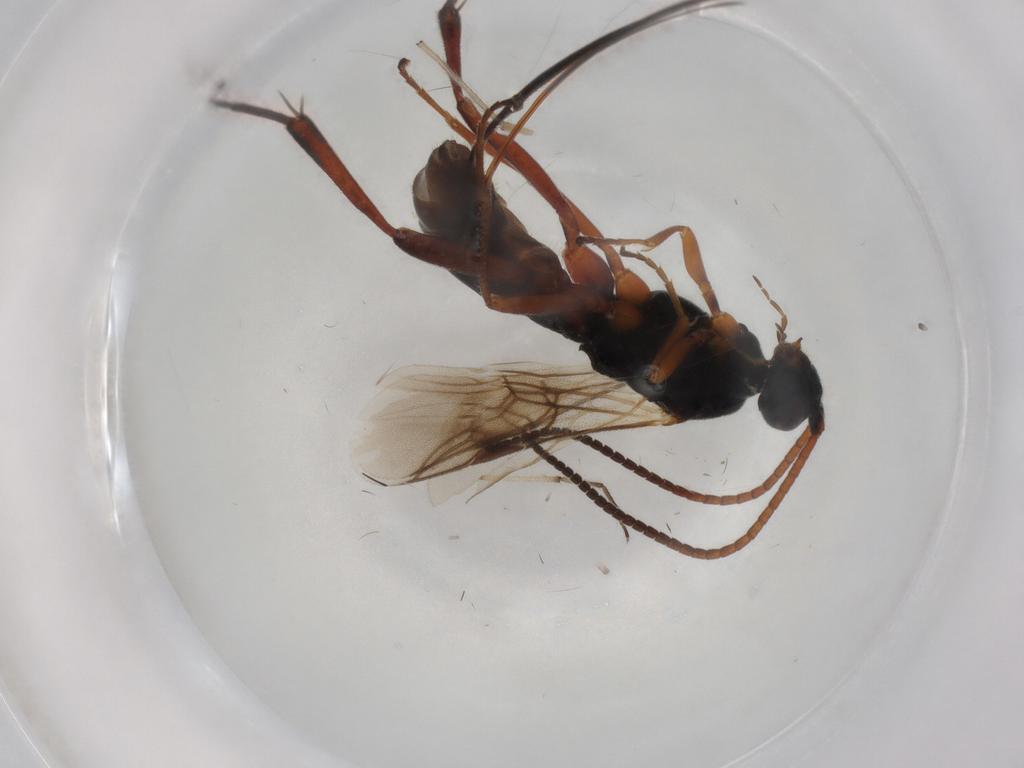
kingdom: Animalia
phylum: Arthropoda
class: Insecta
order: Hymenoptera
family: Braconidae
